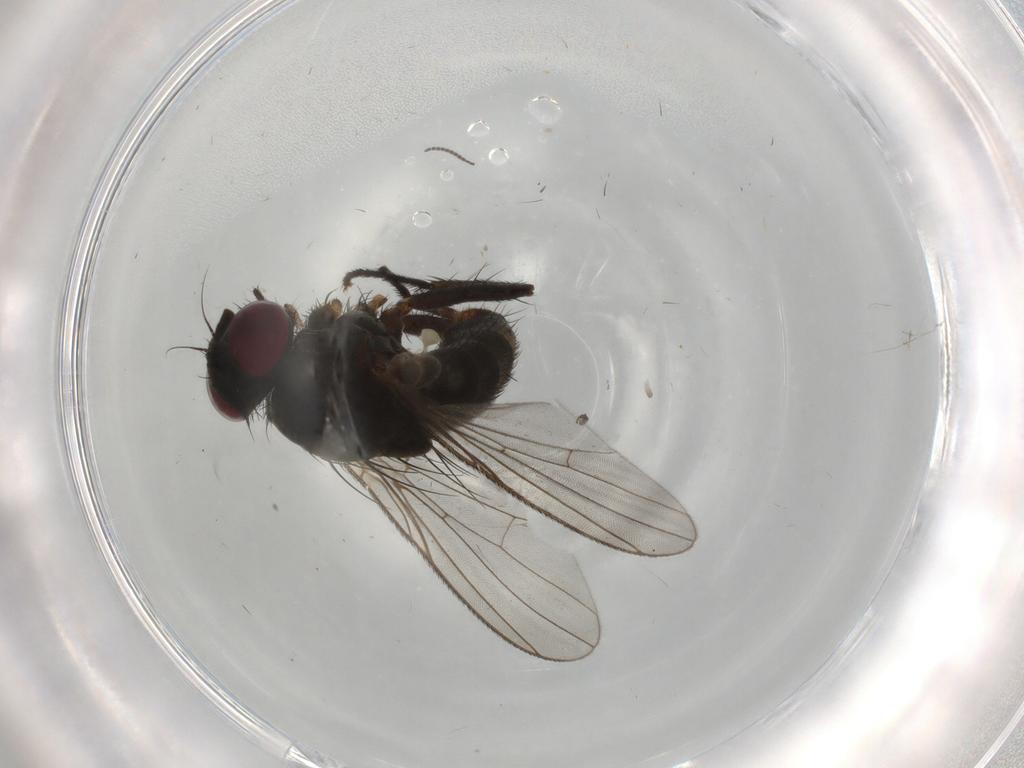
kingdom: Animalia
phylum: Arthropoda
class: Insecta
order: Diptera
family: Muscidae
